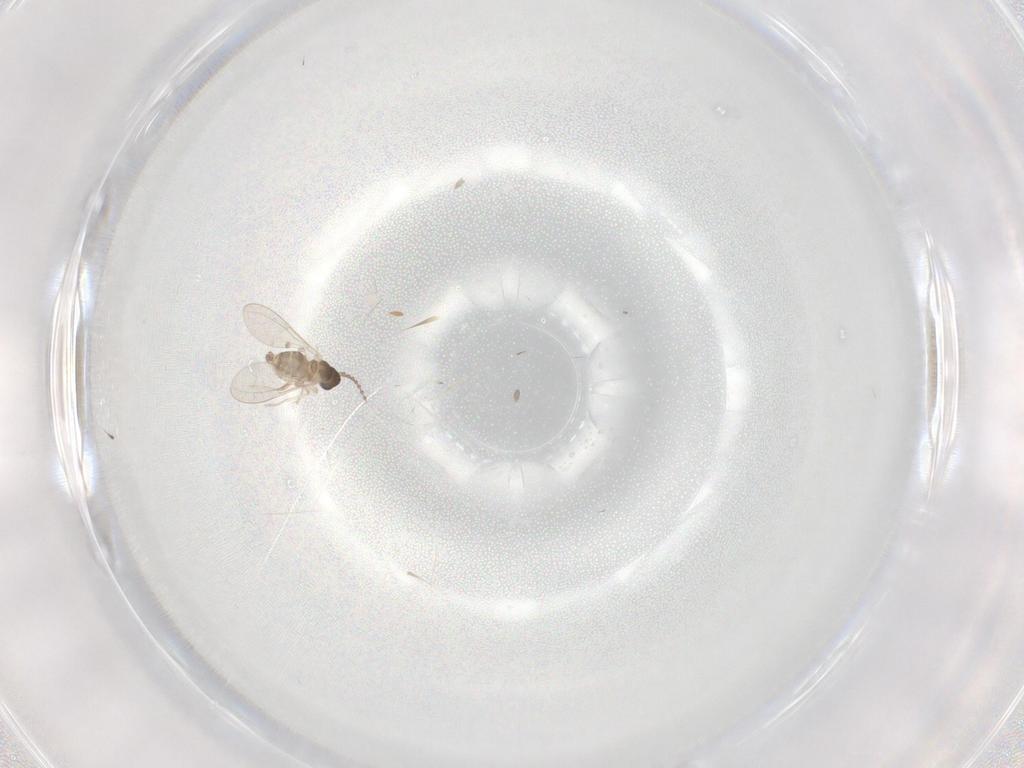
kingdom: Animalia
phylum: Arthropoda
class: Insecta
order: Diptera
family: Cecidomyiidae
